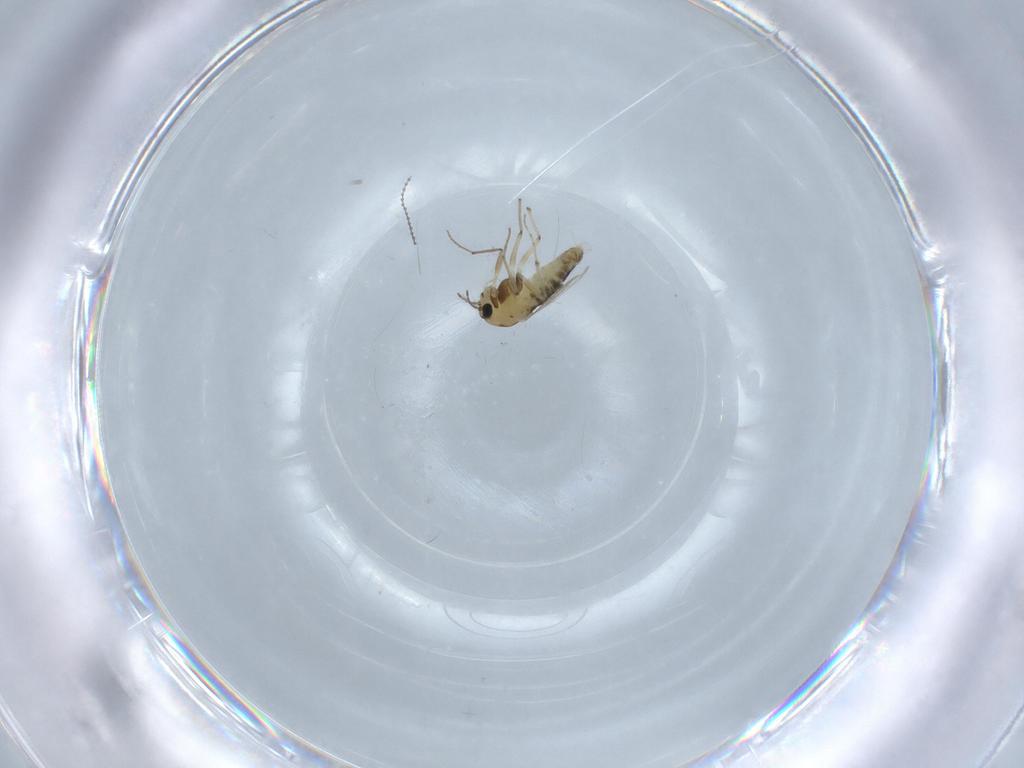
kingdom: Animalia
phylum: Arthropoda
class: Insecta
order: Diptera
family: Chironomidae
